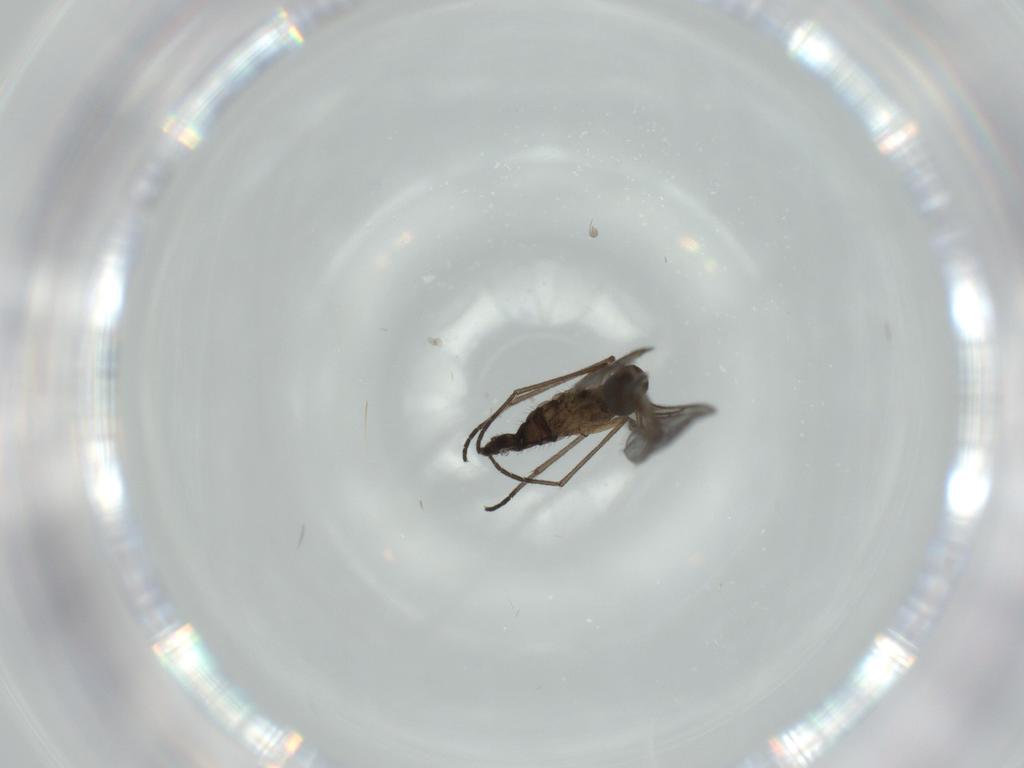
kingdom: Animalia
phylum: Arthropoda
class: Insecta
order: Diptera
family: Sciaridae
